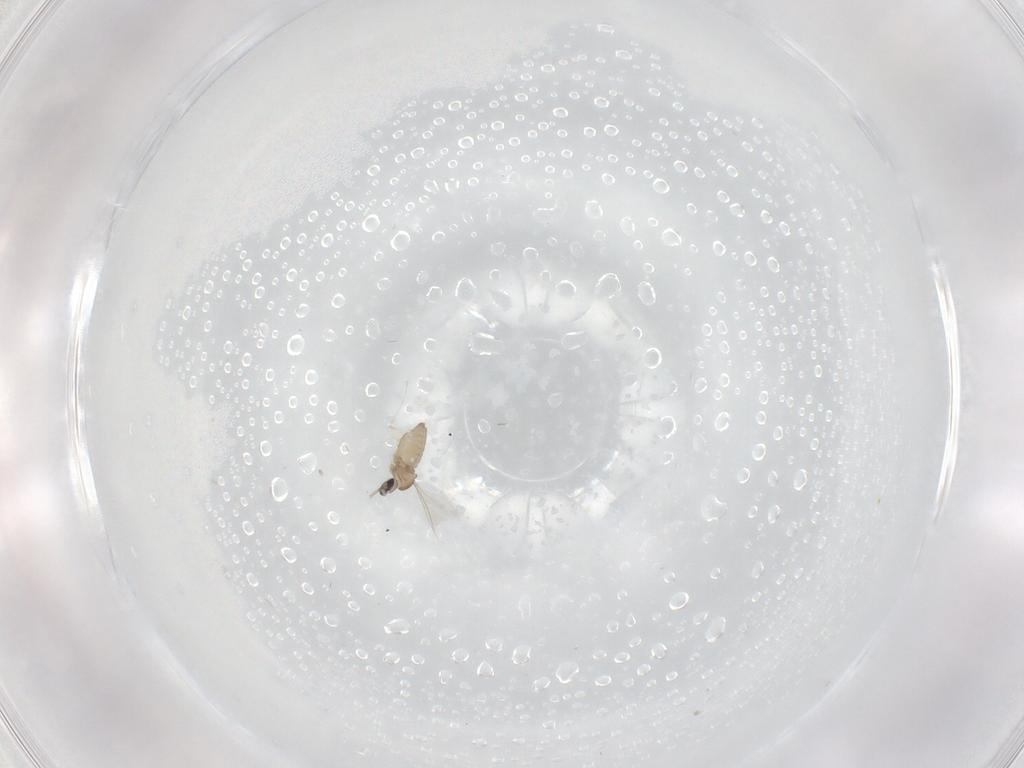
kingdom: Animalia
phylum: Arthropoda
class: Insecta
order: Diptera
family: Cecidomyiidae
